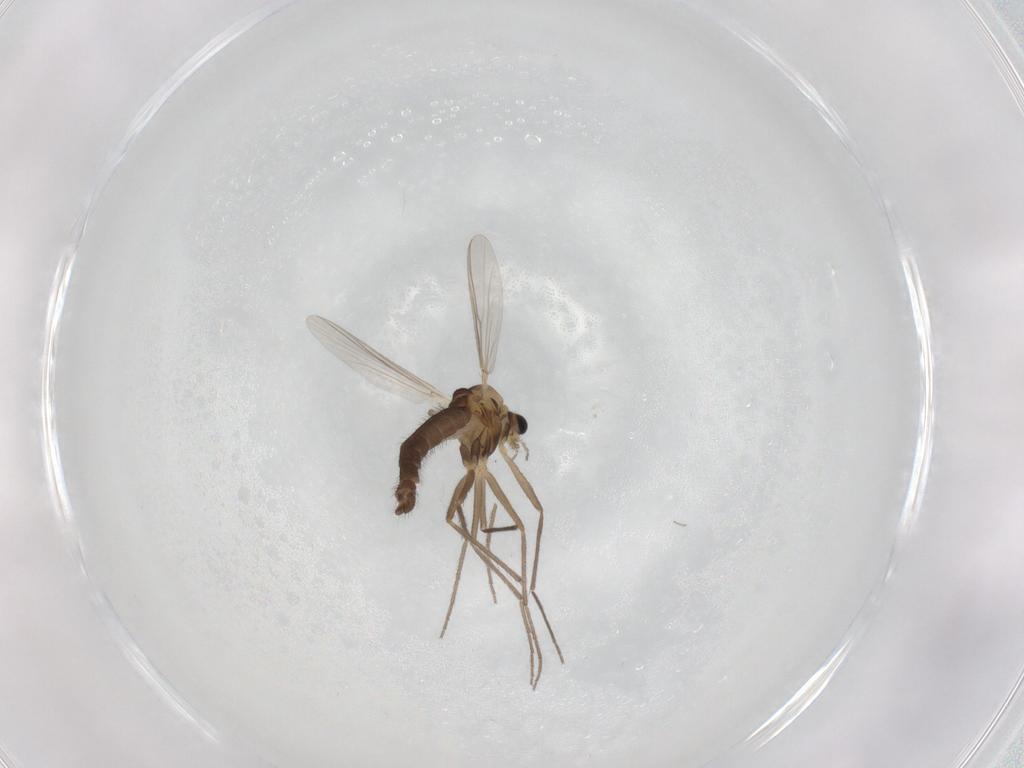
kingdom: Animalia
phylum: Arthropoda
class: Insecta
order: Diptera
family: Chironomidae
